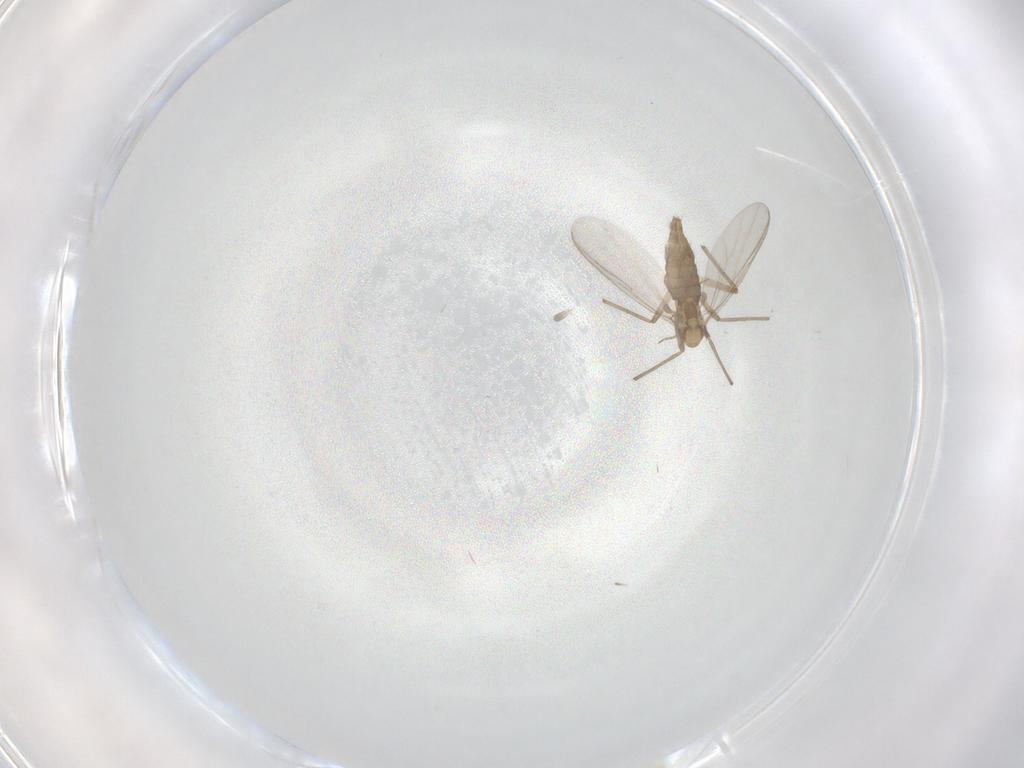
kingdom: Animalia
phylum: Arthropoda
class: Insecta
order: Diptera
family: Chironomidae
